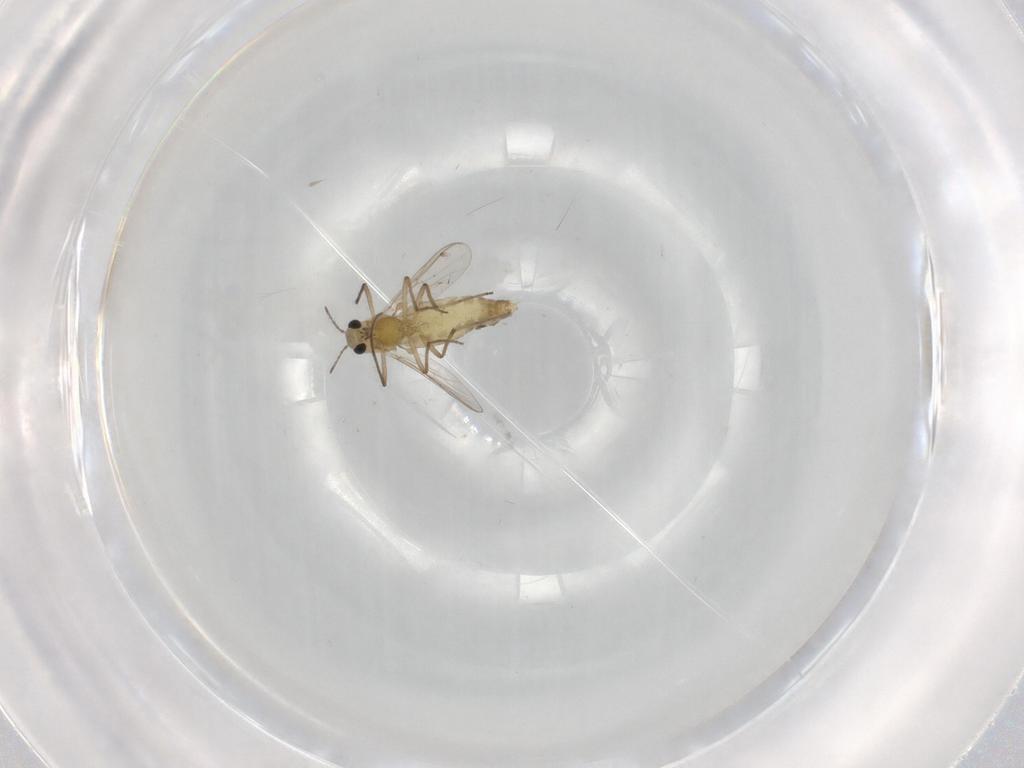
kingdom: Animalia
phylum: Arthropoda
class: Insecta
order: Diptera
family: Chironomidae
